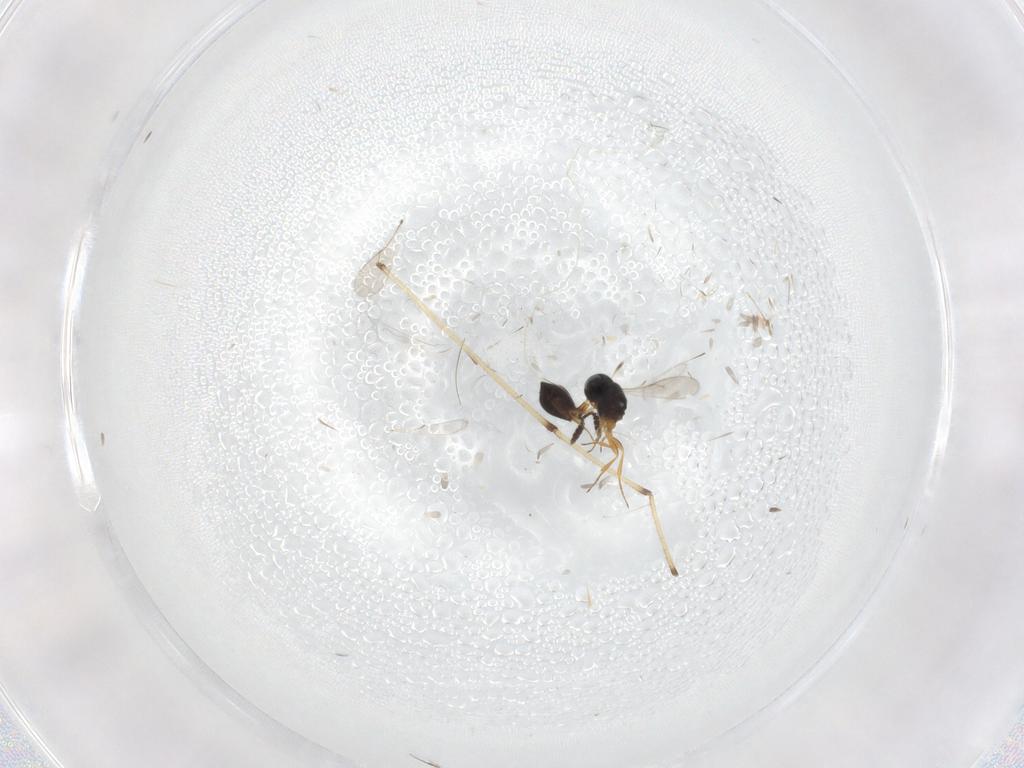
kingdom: Animalia
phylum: Arthropoda
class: Insecta
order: Hymenoptera
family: Scelionidae
